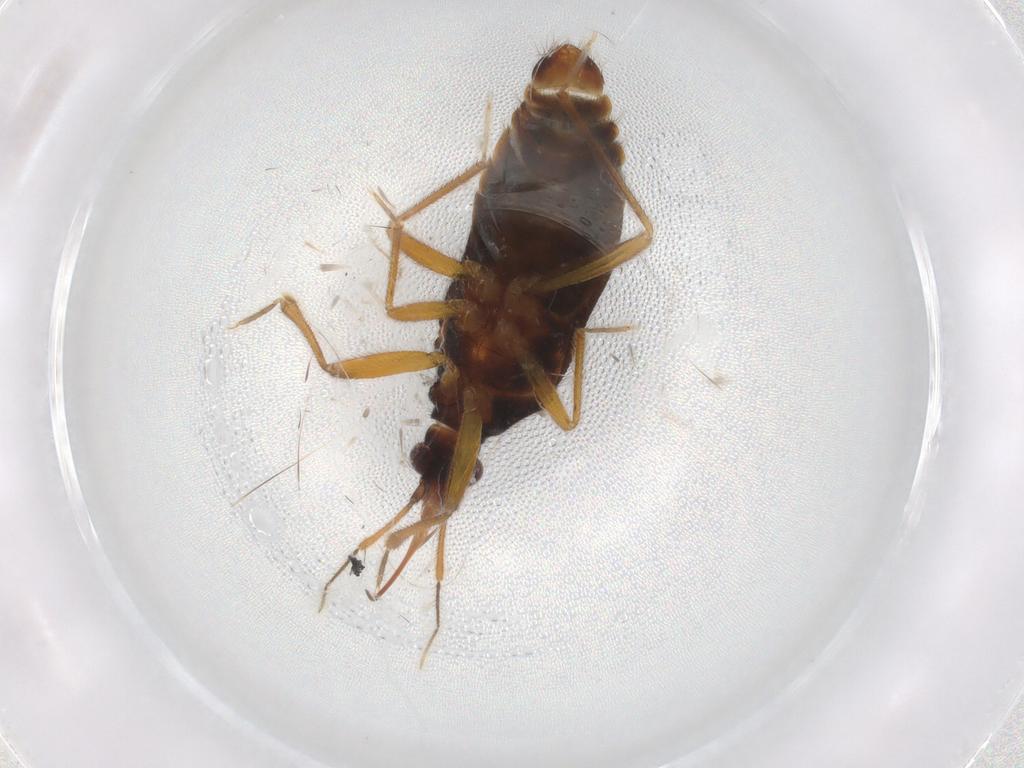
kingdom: Animalia
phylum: Arthropoda
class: Insecta
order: Hemiptera
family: Anthocoridae
